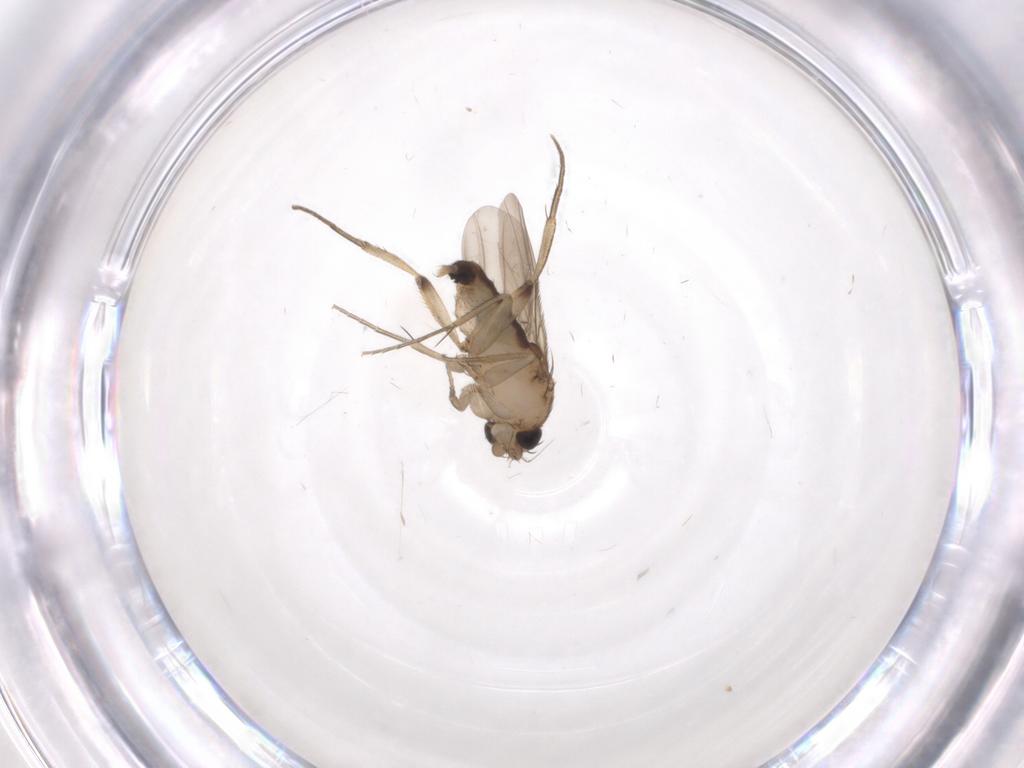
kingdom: Animalia
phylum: Arthropoda
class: Insecta
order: Diptera
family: Phoridae
